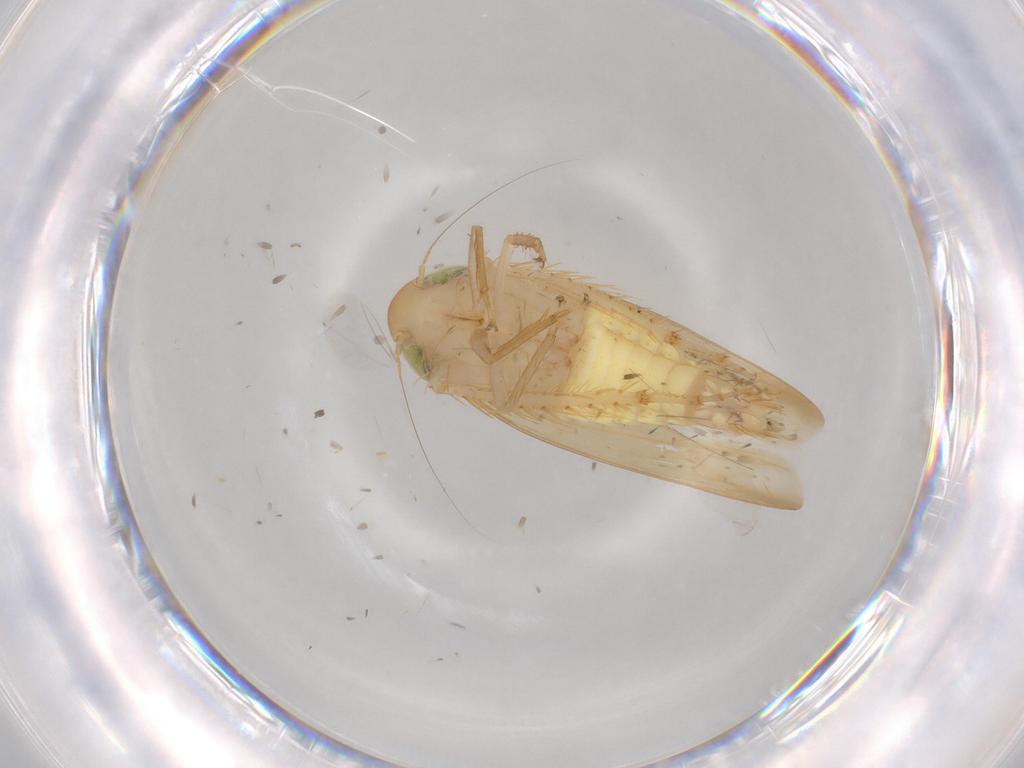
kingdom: Animalia
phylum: Arthropoda
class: Insecta
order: Hemiptera
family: Cicadellidae
